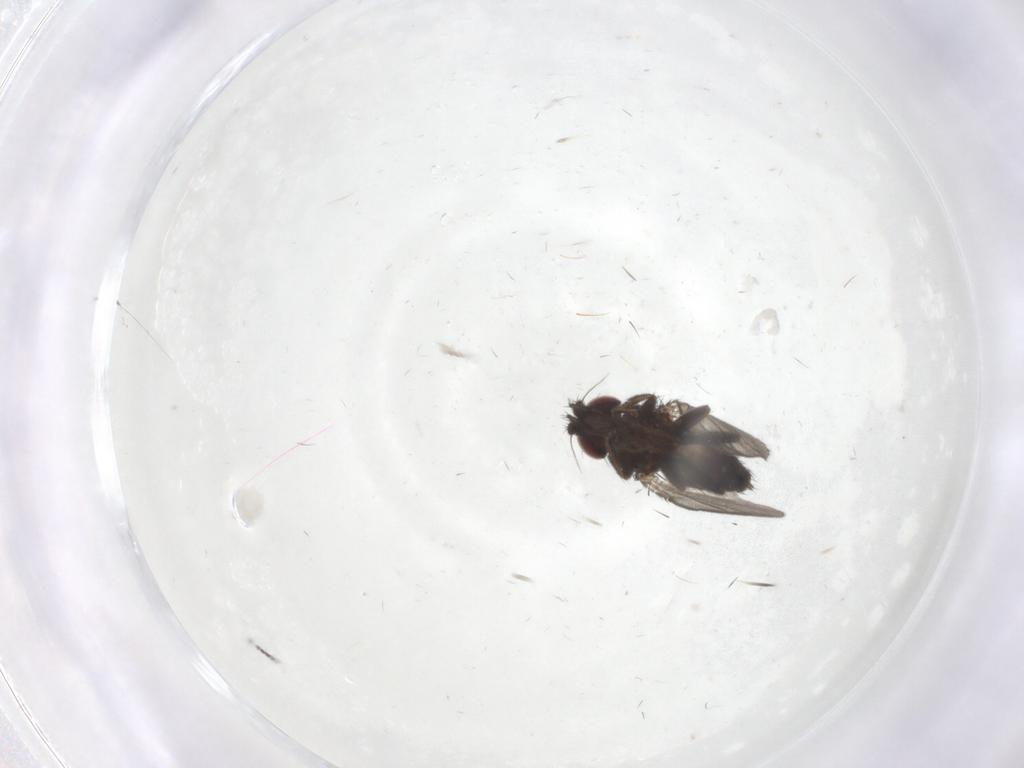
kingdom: Animalia
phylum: Arthropoda
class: Insecta
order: Diptera
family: Milichiidae
